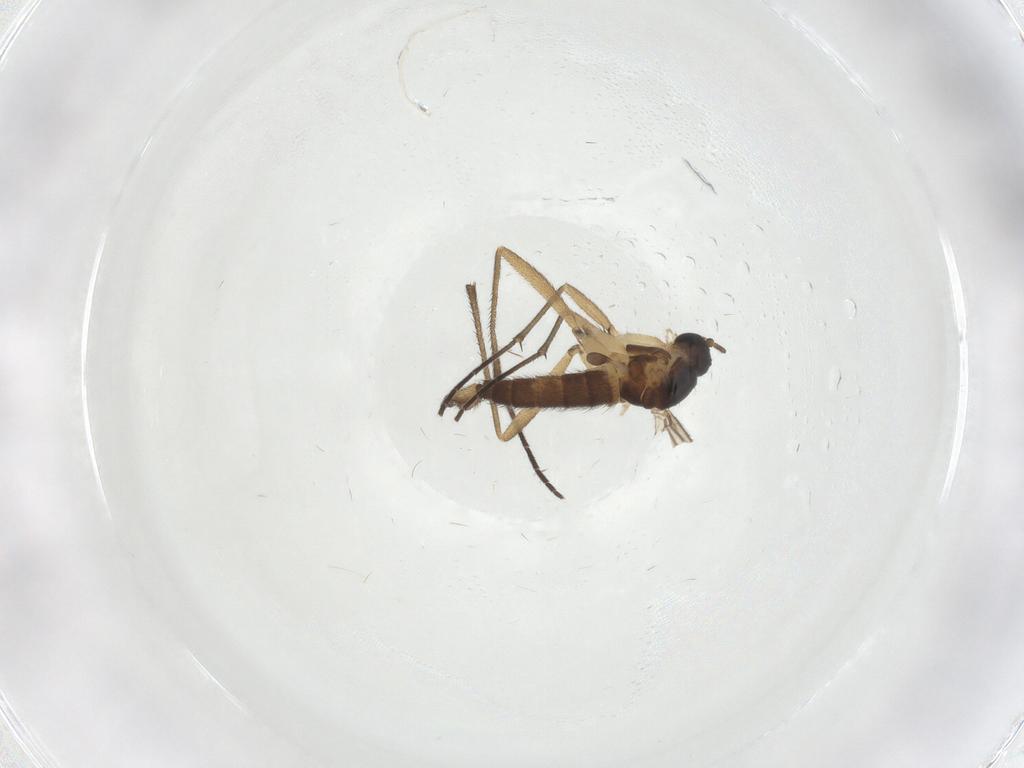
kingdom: Animalia
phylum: Arthropoda
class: Insecta
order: Diptera
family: Sciaridae
